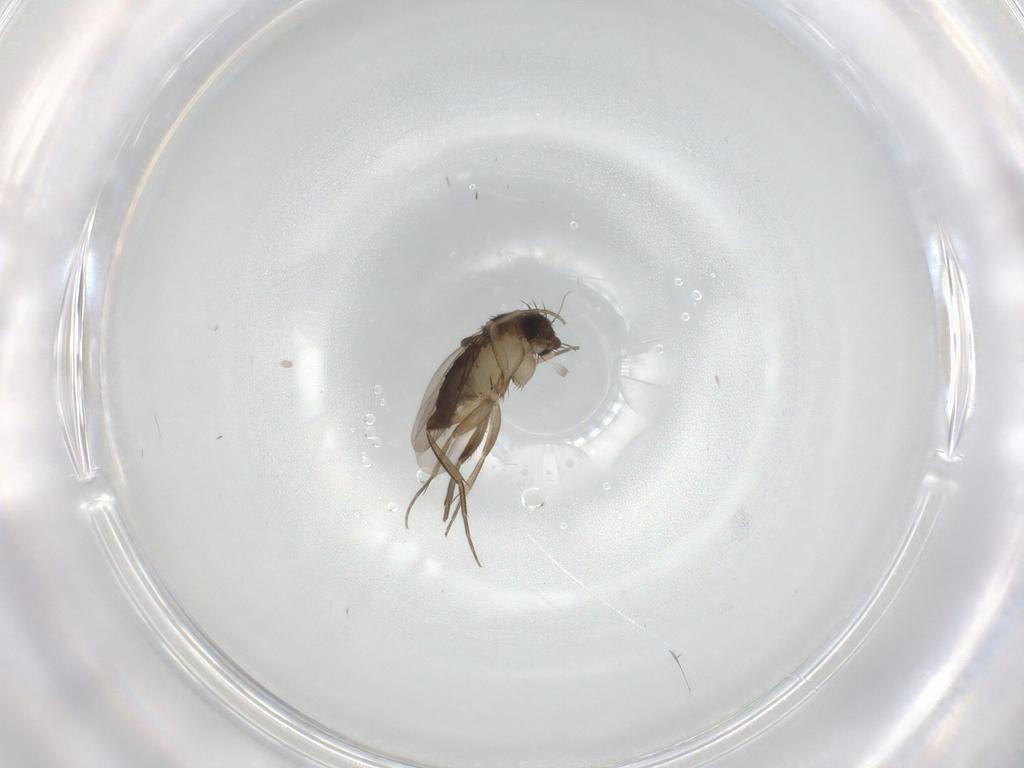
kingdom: Animalia
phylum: Arthropoda
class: Insecta
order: Diptera
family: Phoridae
